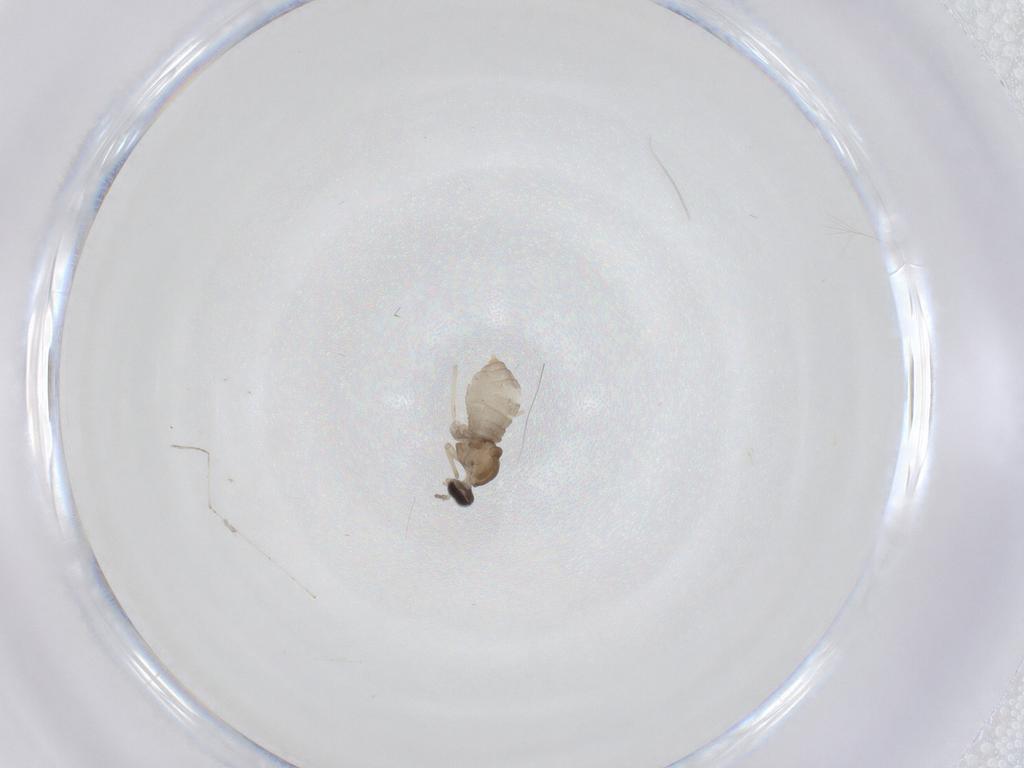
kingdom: Animalia
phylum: Arthropoda
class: Insecta
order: Diptera
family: Cecidomyiidae
